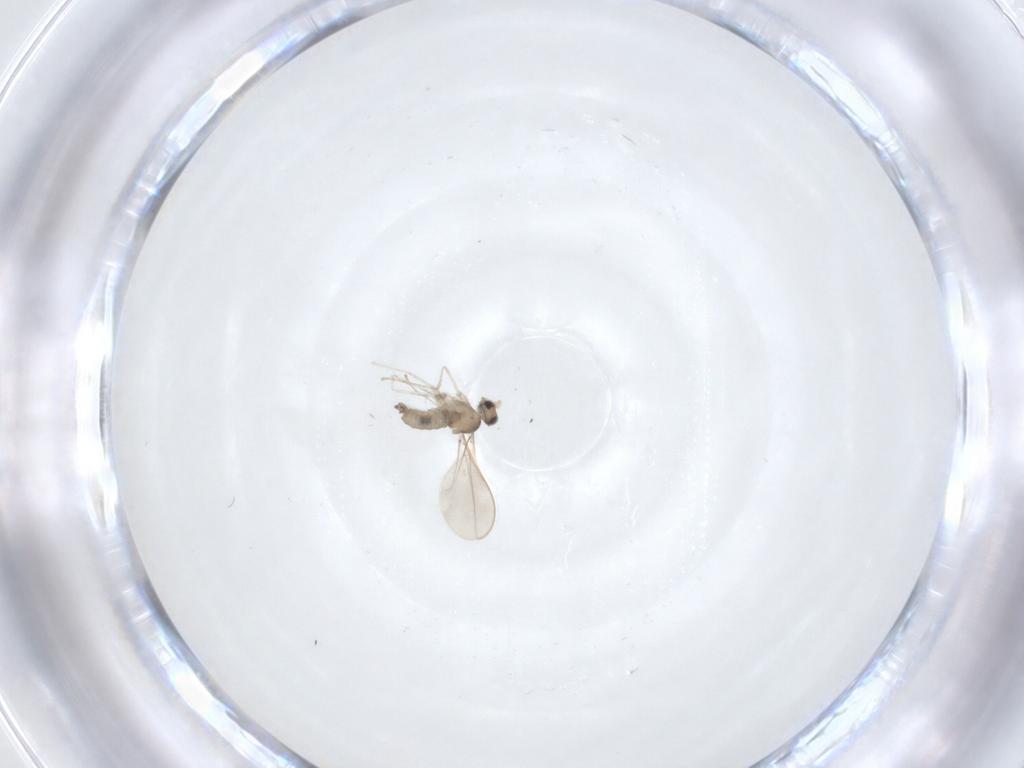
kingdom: Animalia
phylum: Arthropoda
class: Insecta
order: Diptera
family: Cecidomyiidae
